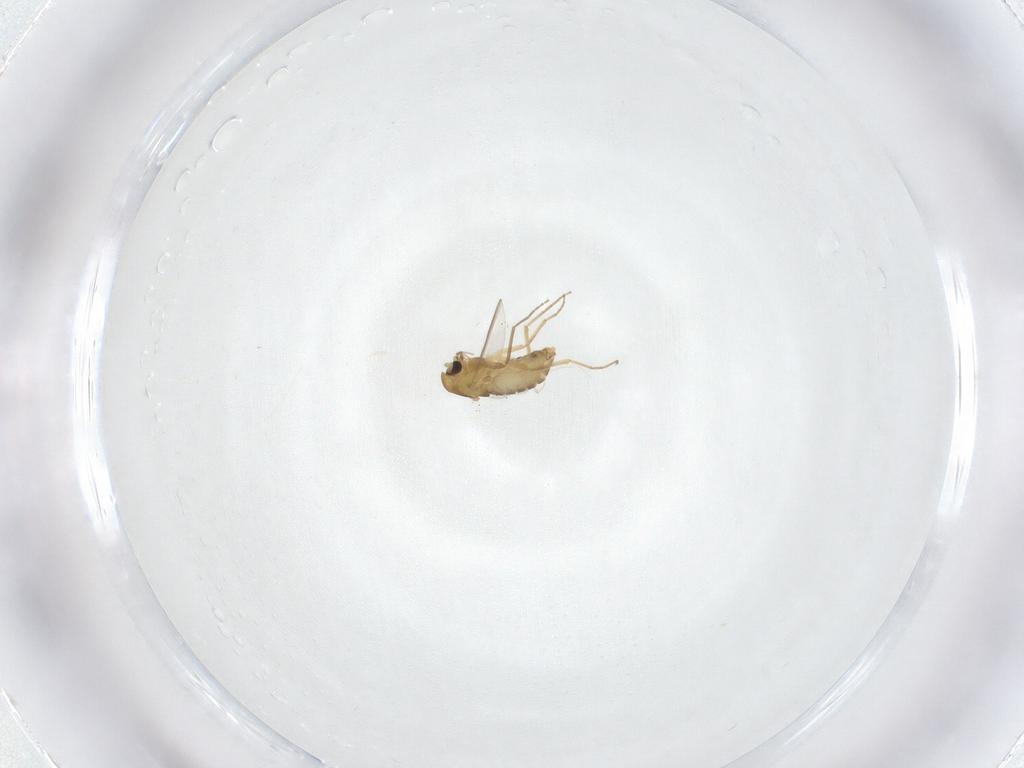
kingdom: Animalia
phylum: Arthropoda
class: Insecta
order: Diptera
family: Chironomidae
